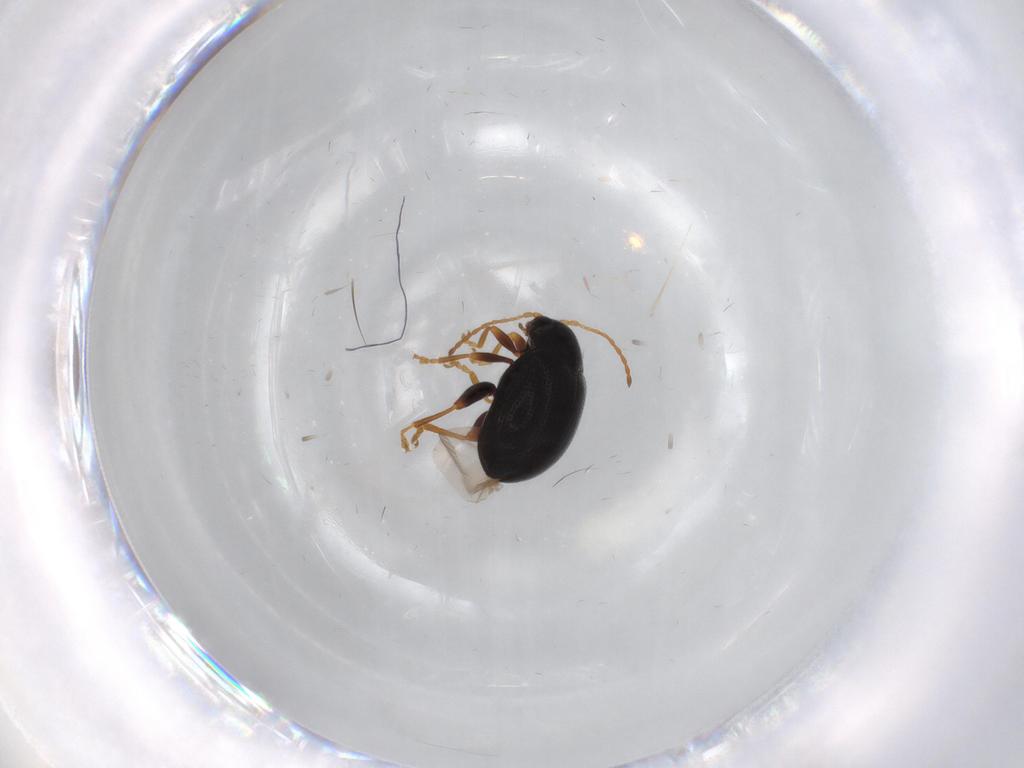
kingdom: Animalia
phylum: Arthropoda
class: Insecta
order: Coleoptera
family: Chrysomelidae
